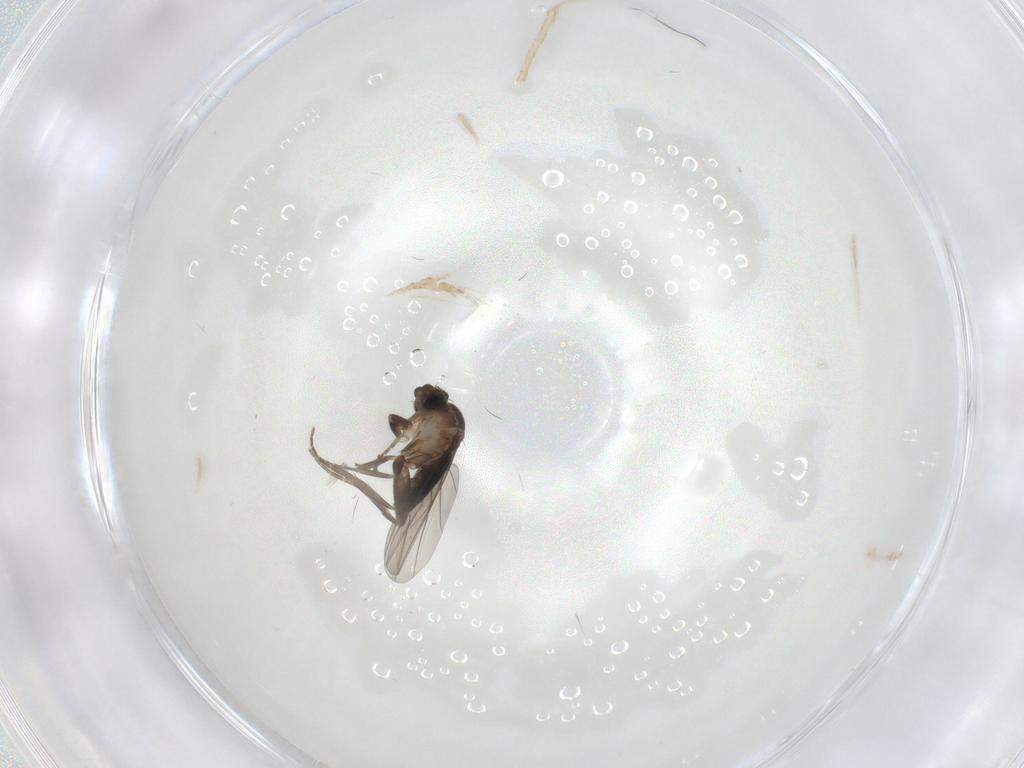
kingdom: Animalia
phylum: Arthropoda
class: Insecta
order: Diptera
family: Cecidomyiidae
